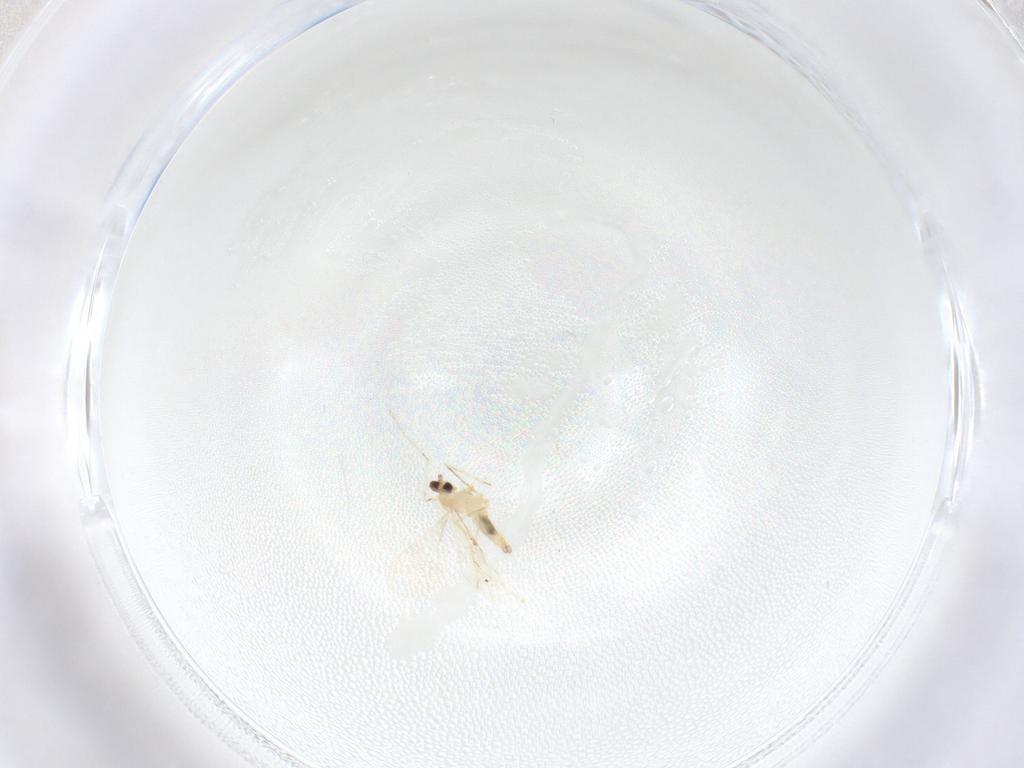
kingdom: Animalia
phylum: Arthropoda
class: Insecta
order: Diptera
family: Cecidomyiidae
